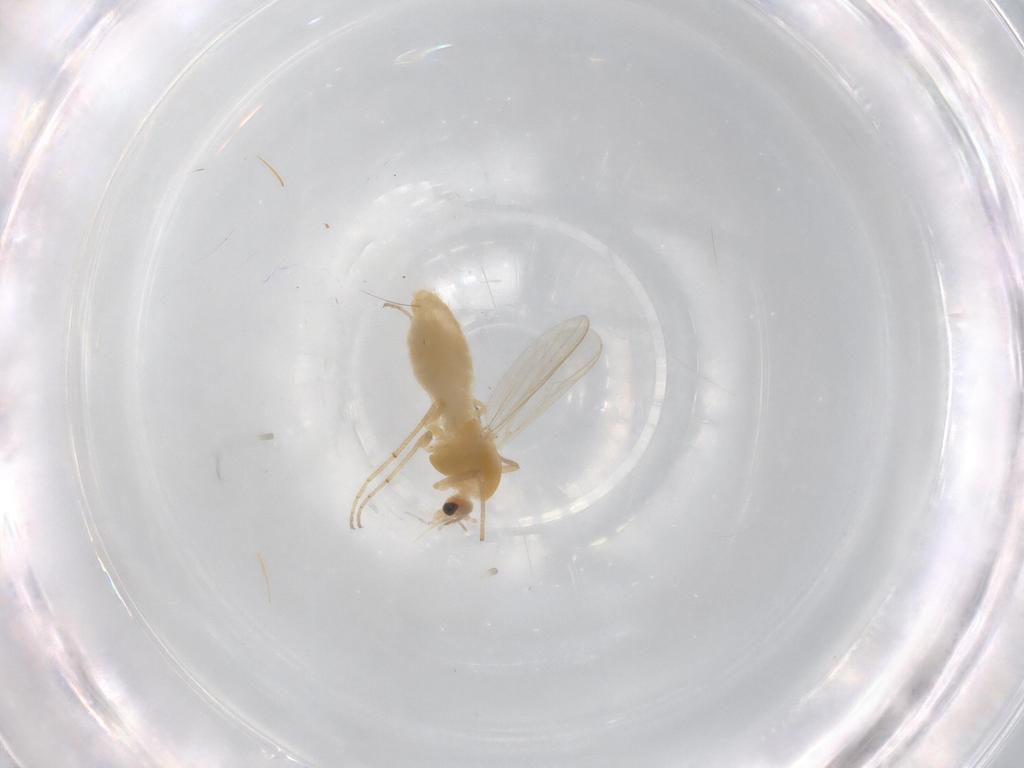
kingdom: Animalia
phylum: Arthropoda
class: Insecta
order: Diptera
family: Chironomidae
